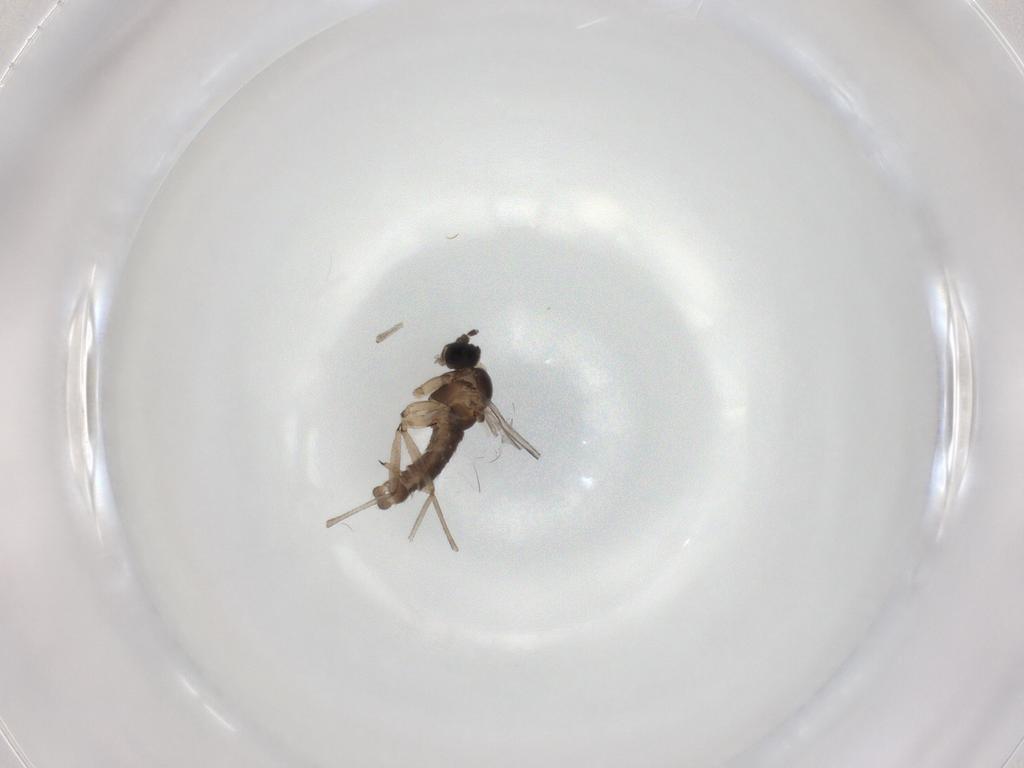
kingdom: Animalia
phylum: Arthropoda
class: Insecta
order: Diptera
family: Sciaridae
